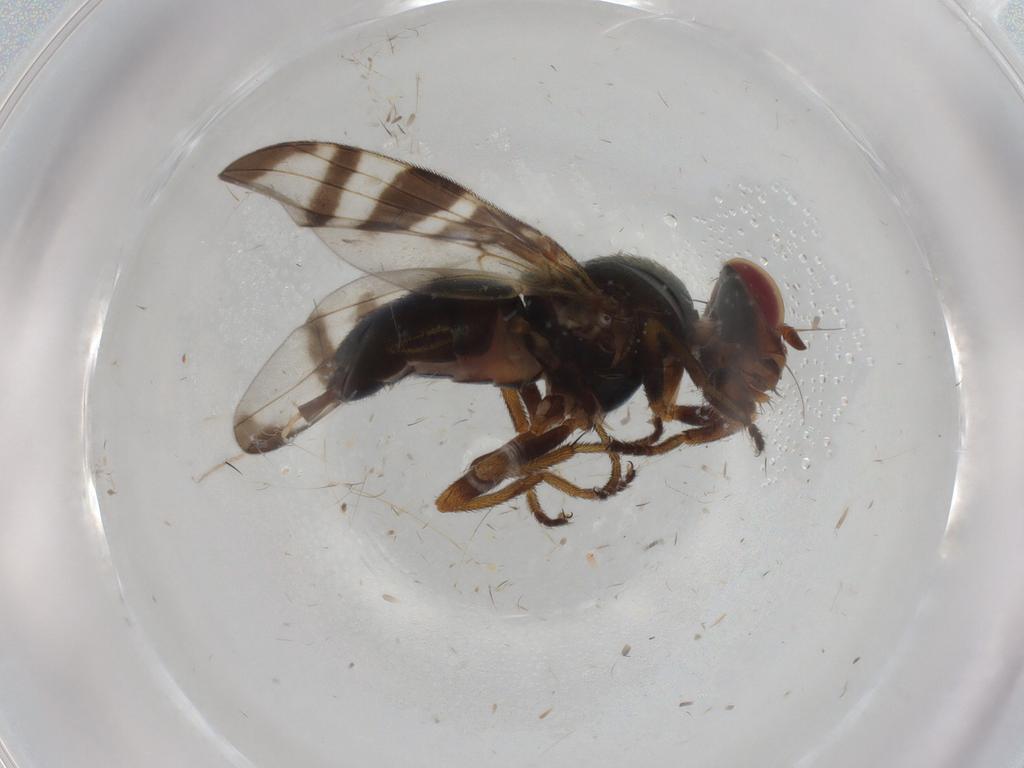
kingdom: Animalia
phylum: Arthropoda
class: Insecta
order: Diptera
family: Platystomatidae
